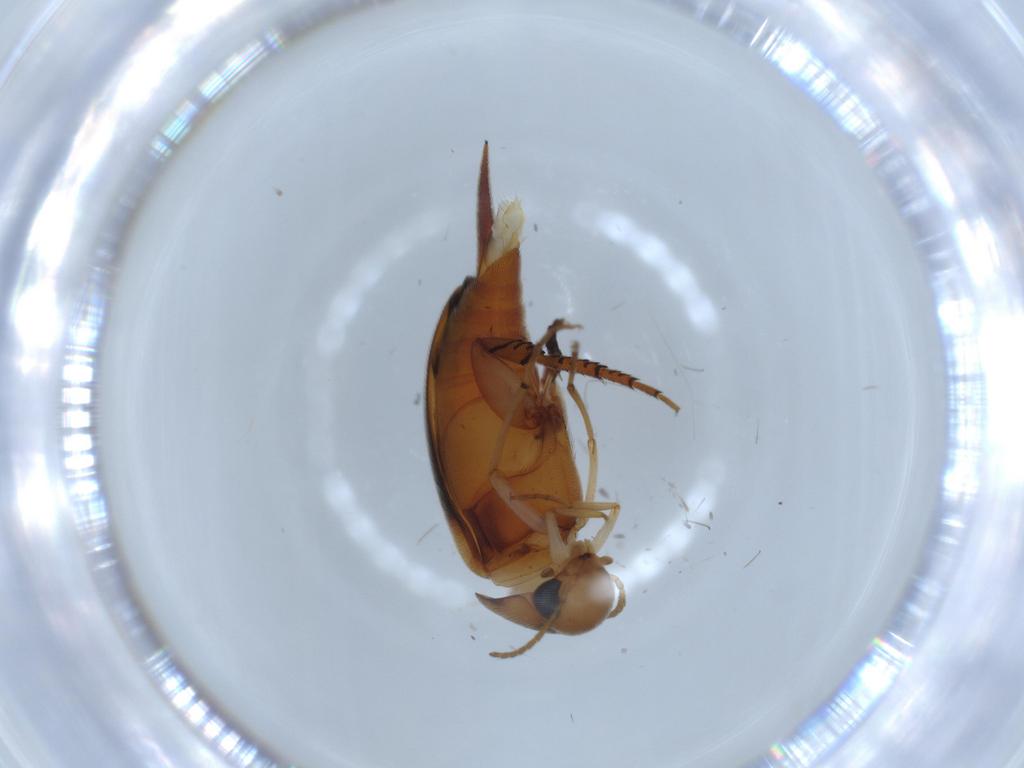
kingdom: Animalia
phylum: Arthropoda
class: Insecta
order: Coleoptera
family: Mordellidae
